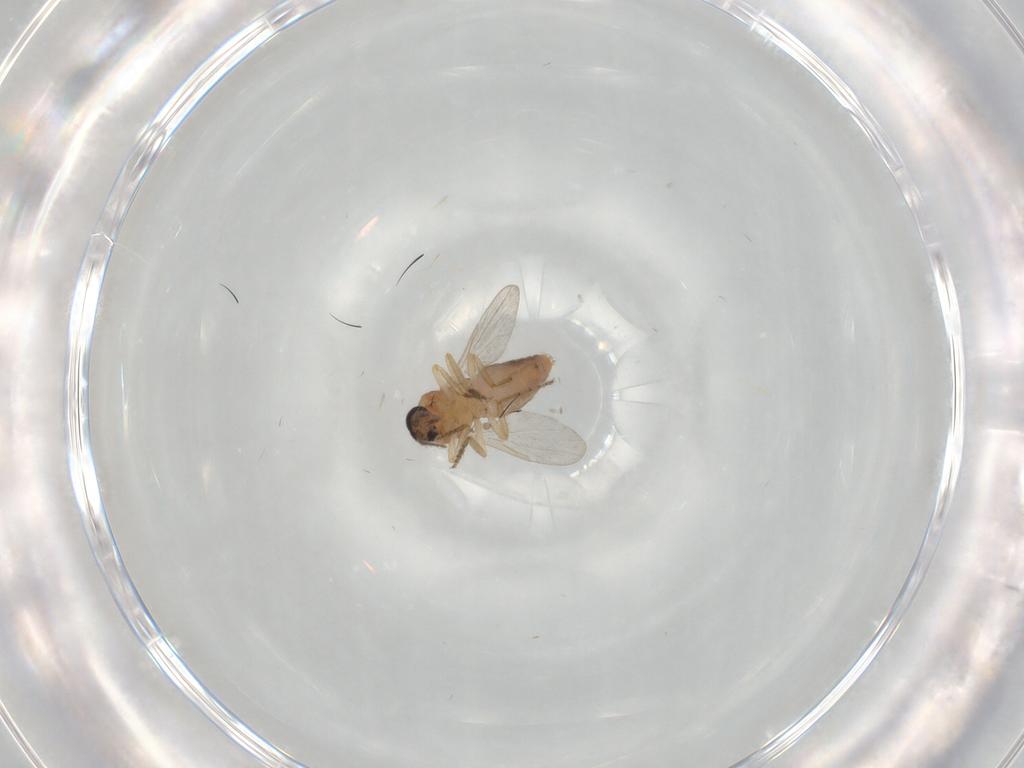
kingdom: Animalia
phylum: Arthropoda
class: Insecta
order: Diptera
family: Ceratopogonidae
